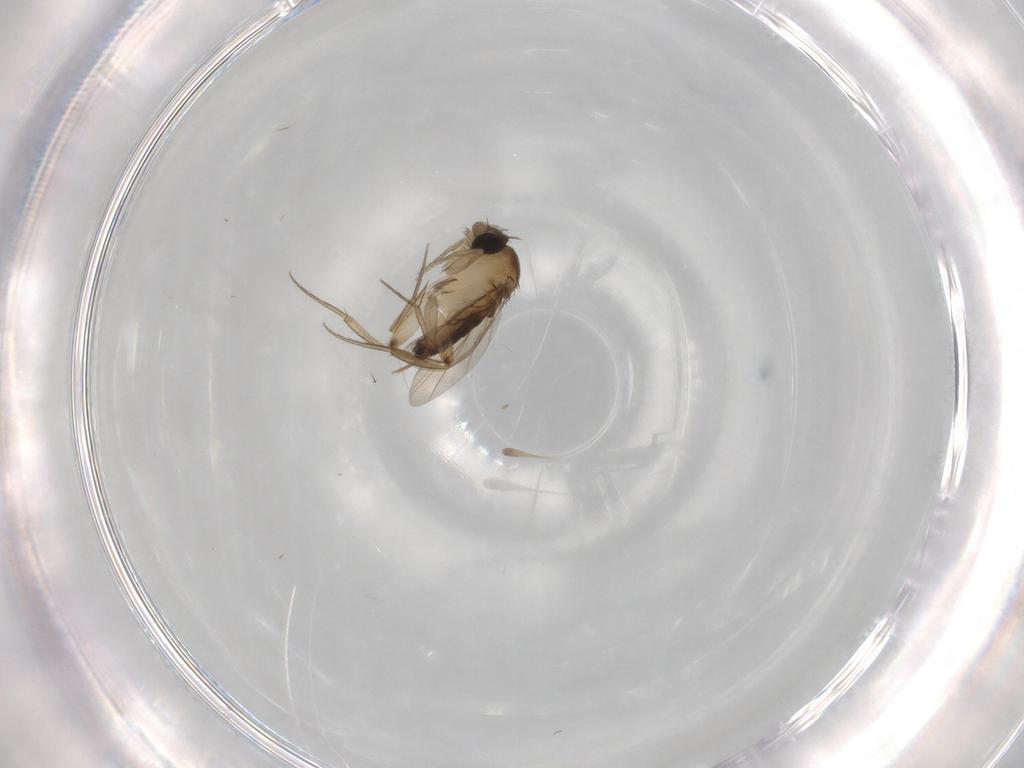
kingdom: Animalia
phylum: Arthropoda
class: Insecta
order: Diptera
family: Phoridae
